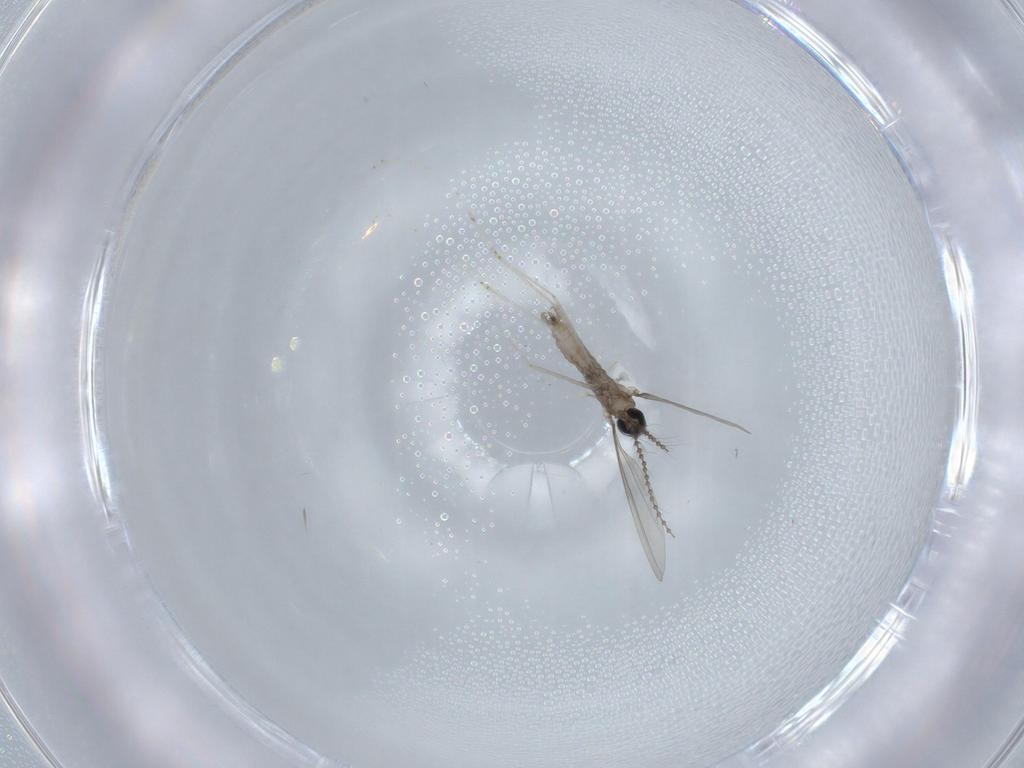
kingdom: Animalia
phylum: Arthropoda
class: Insecta
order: Diptera
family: Cecidomyiidae
